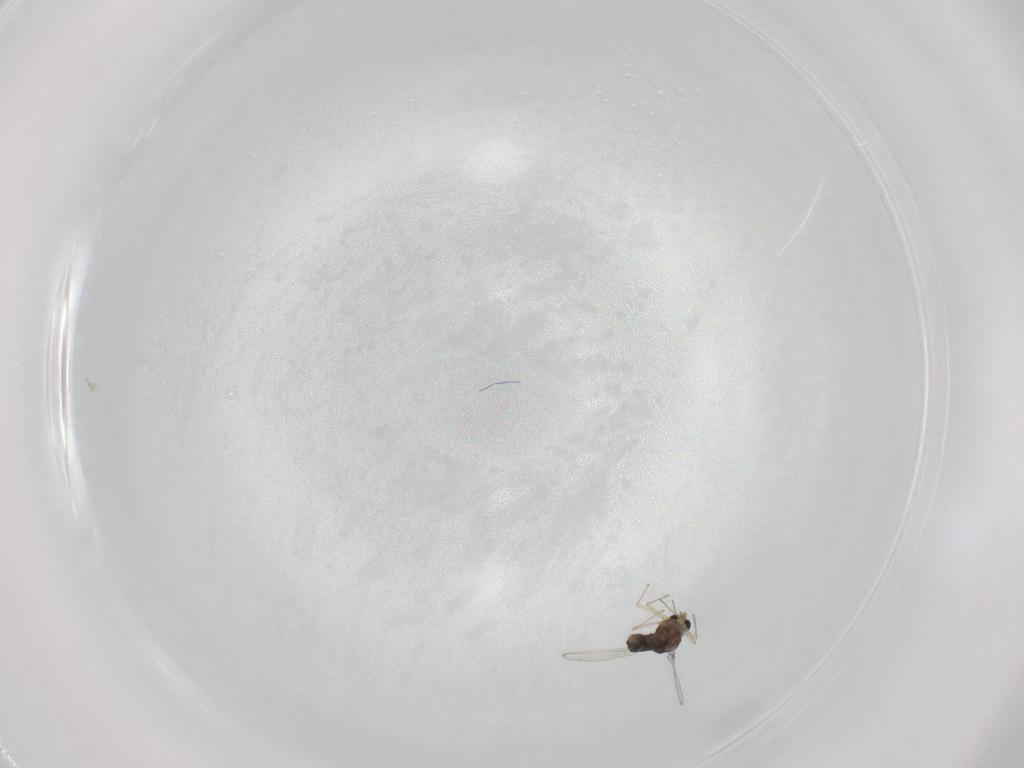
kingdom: Animalia
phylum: Arthropoda
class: Insecta
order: Diptera
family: Chironomidae
